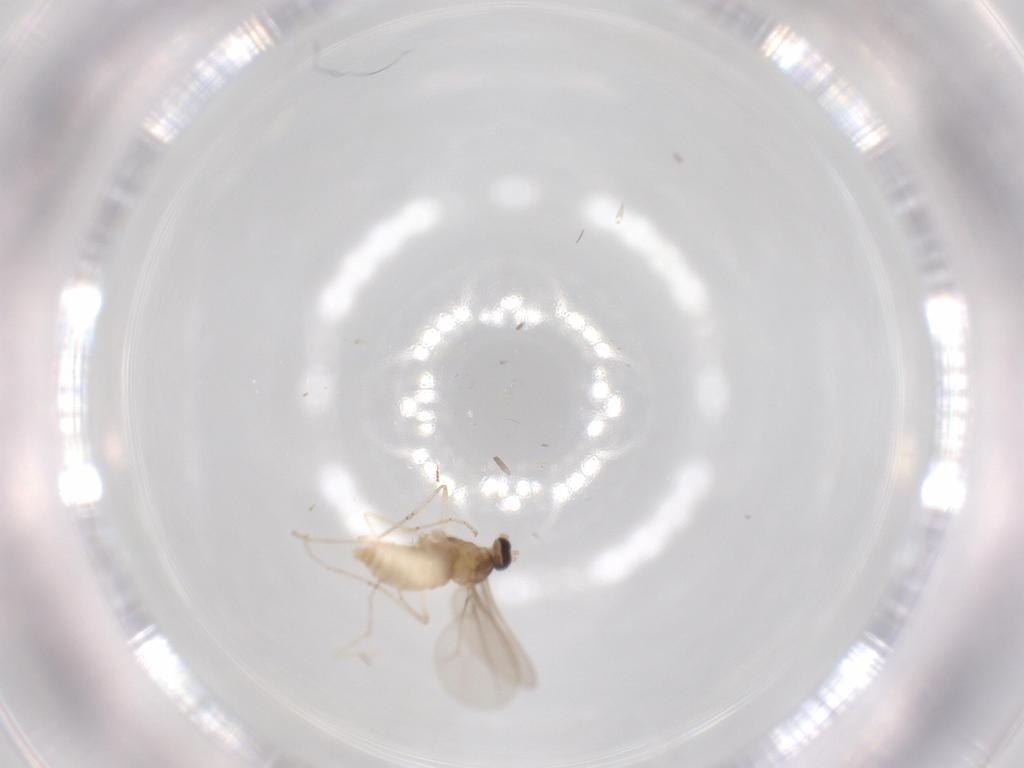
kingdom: Animalia
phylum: Arthropoda
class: Insecta
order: Diptera
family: Cecidomyiidae
